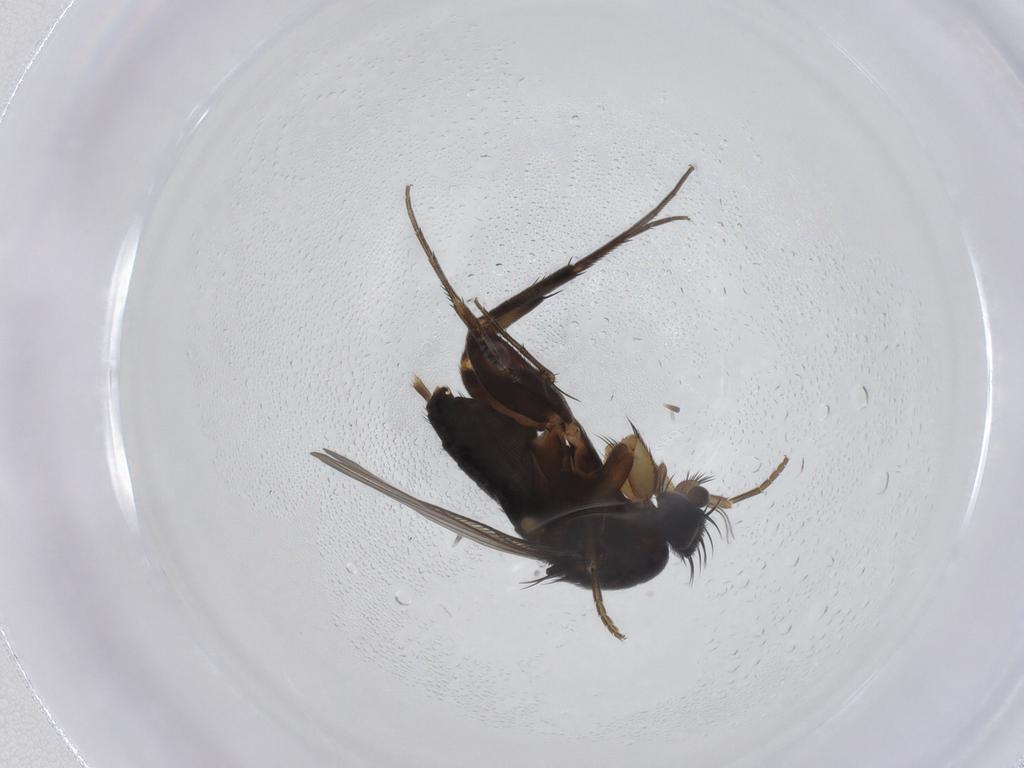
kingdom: Animalia
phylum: Arthropoda
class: Insecta
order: Diptera
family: Phoridae
